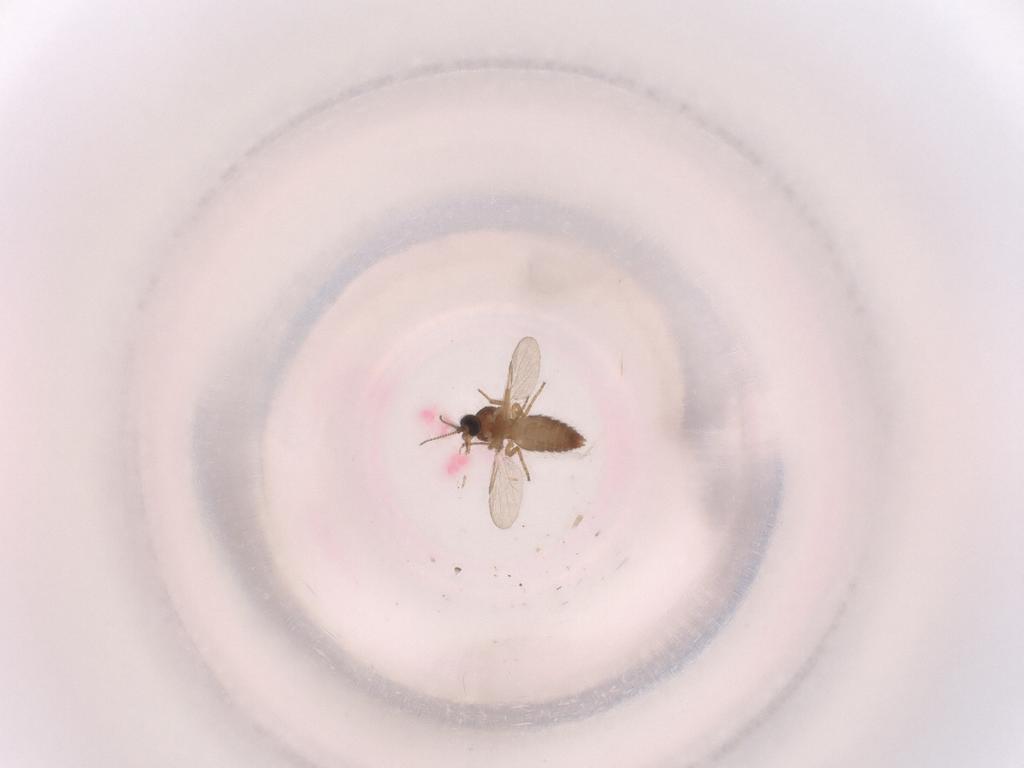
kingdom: Animalia
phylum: Arthropoda
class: Insecta
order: Diptera
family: Ceratopogonidae
